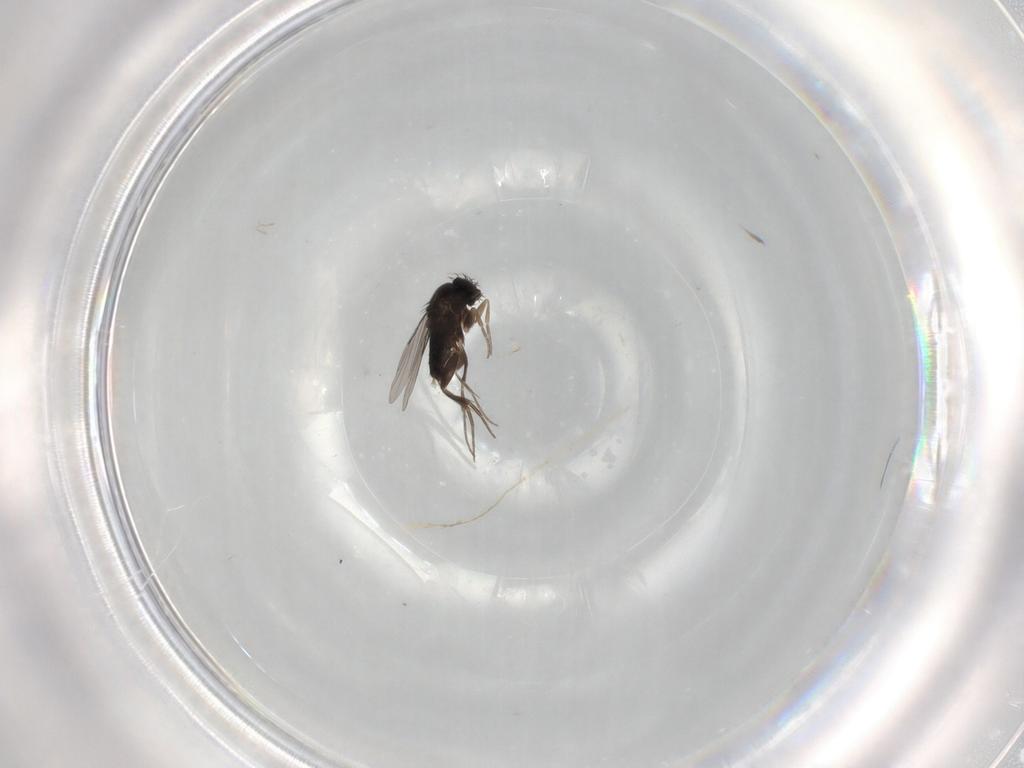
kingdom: Animalia
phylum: Arthropoda
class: Insecta
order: Diptera
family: Phoridae
